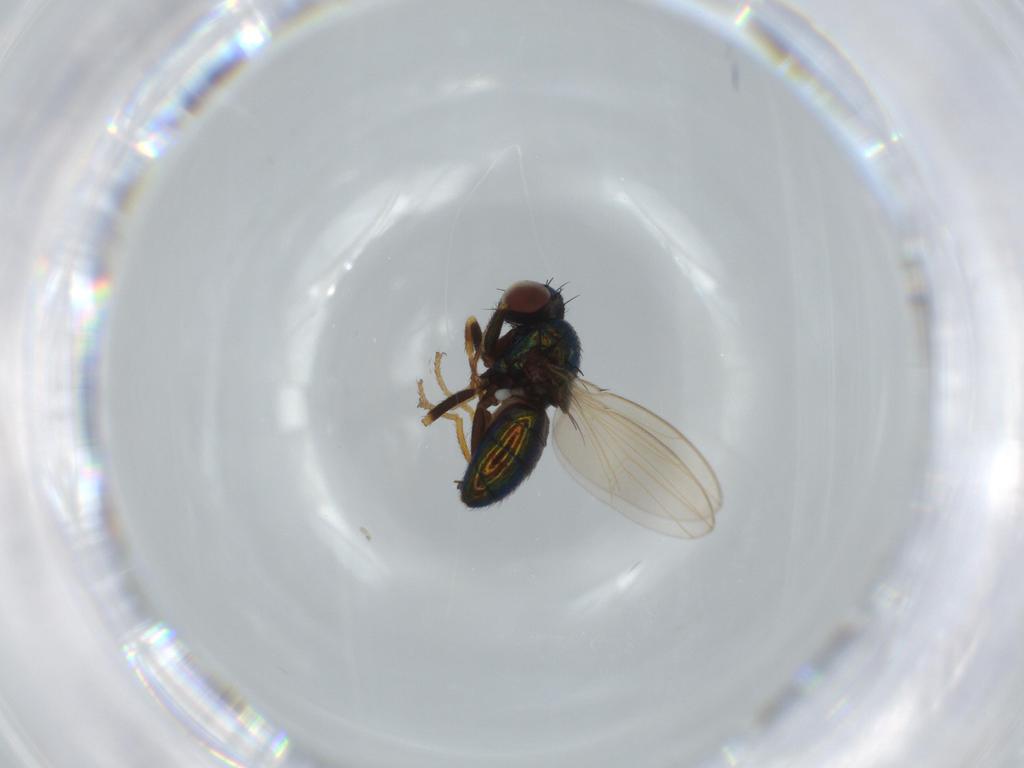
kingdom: Animalia
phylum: Arthropoda
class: Insecta
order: Diptera
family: Ephydridae
